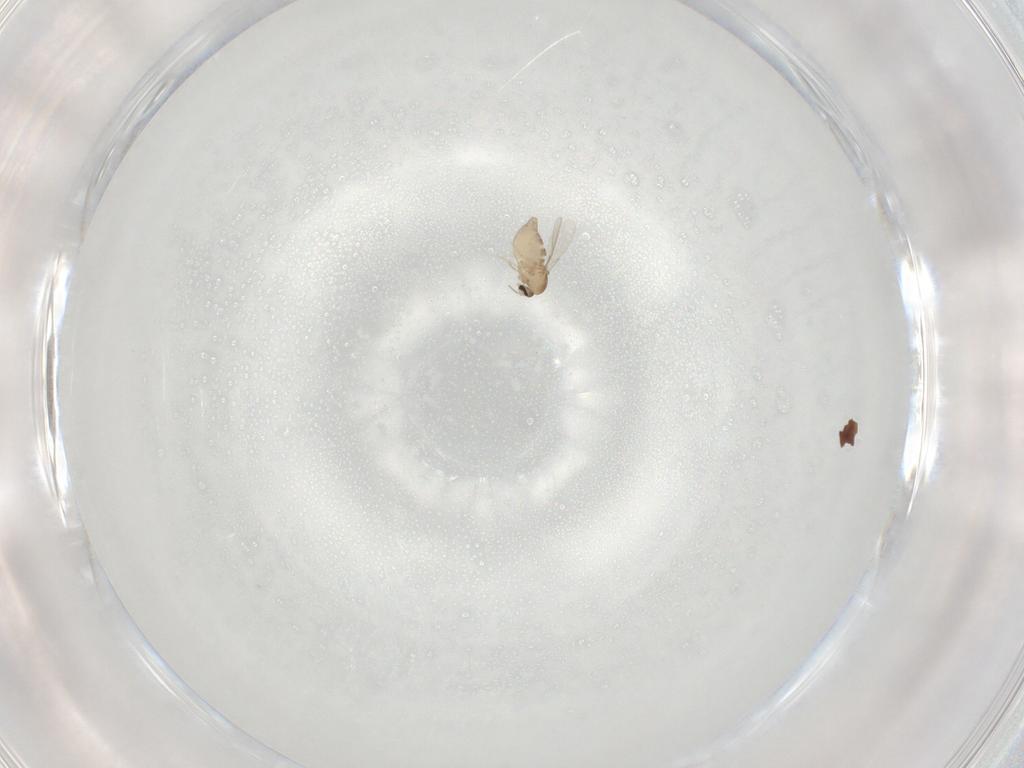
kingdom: Animalia
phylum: Arthropoda
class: Insecta
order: Diptera
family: Ceratopogonidae
